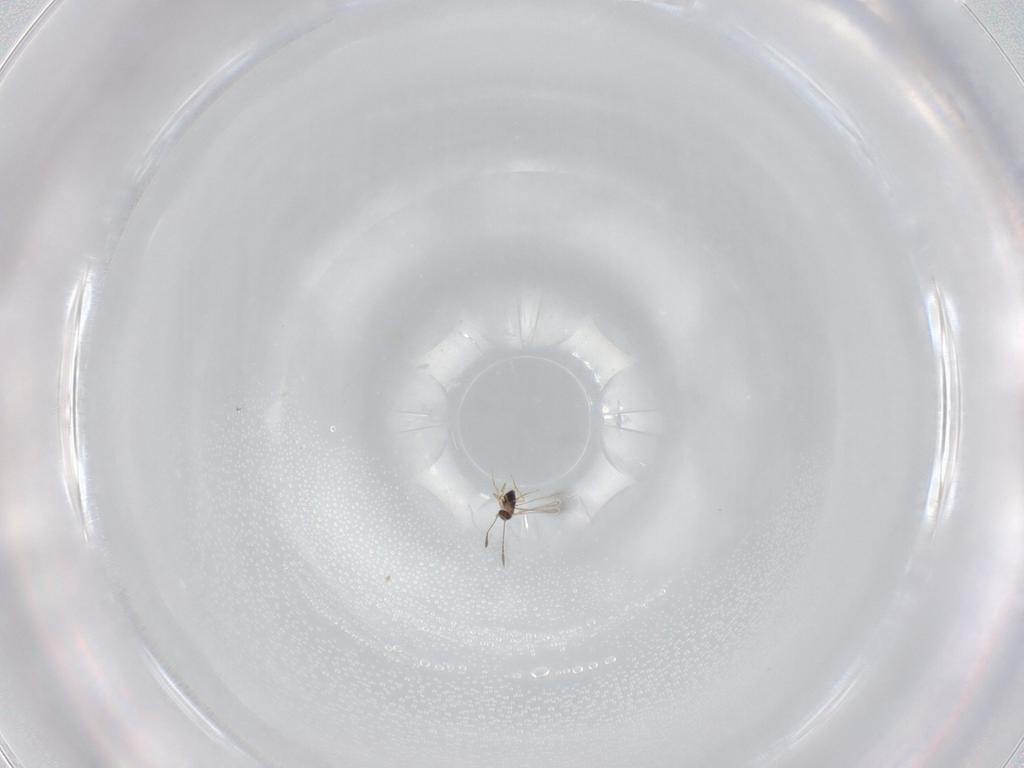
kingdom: Animalia
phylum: Arthropoda
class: Insecta
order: Hymenoptera
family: Mymaridae
